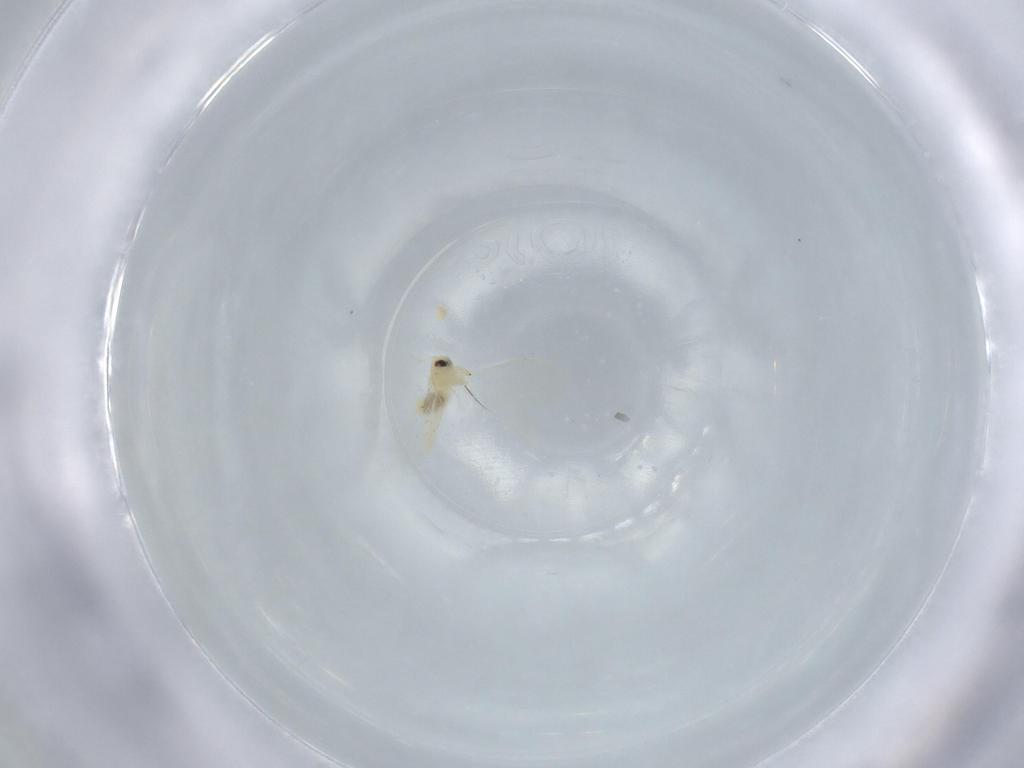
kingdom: Animalia
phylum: Arthropoda
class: Insecta
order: Hemiptera
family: Aleyrodidae
